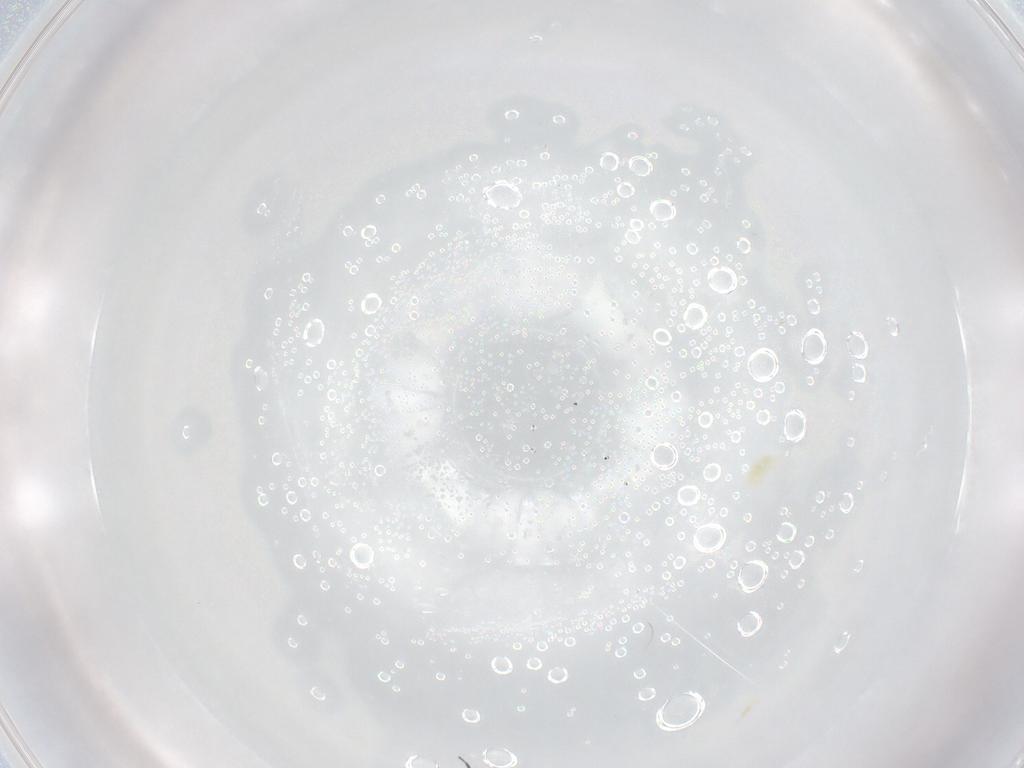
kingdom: Animalia
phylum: Arthropoda
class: Arachnida
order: Trombidiformes
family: Eupodidae
